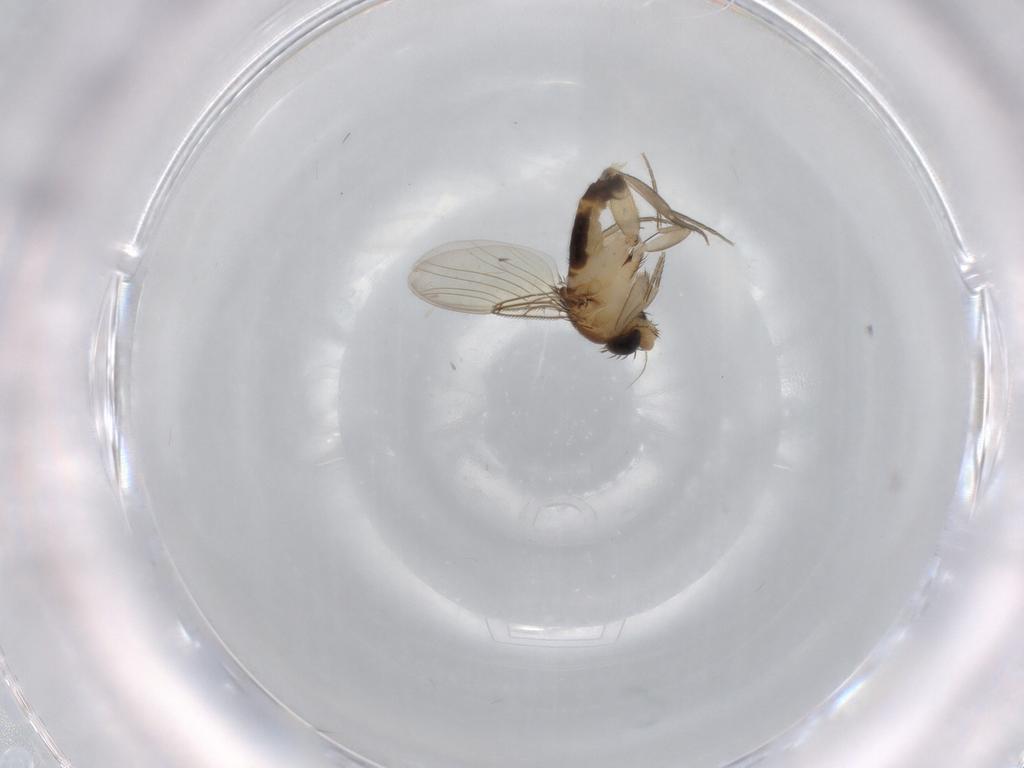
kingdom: Animalia
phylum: Arthropoda
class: Insecta
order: Diptera
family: Phoridae
